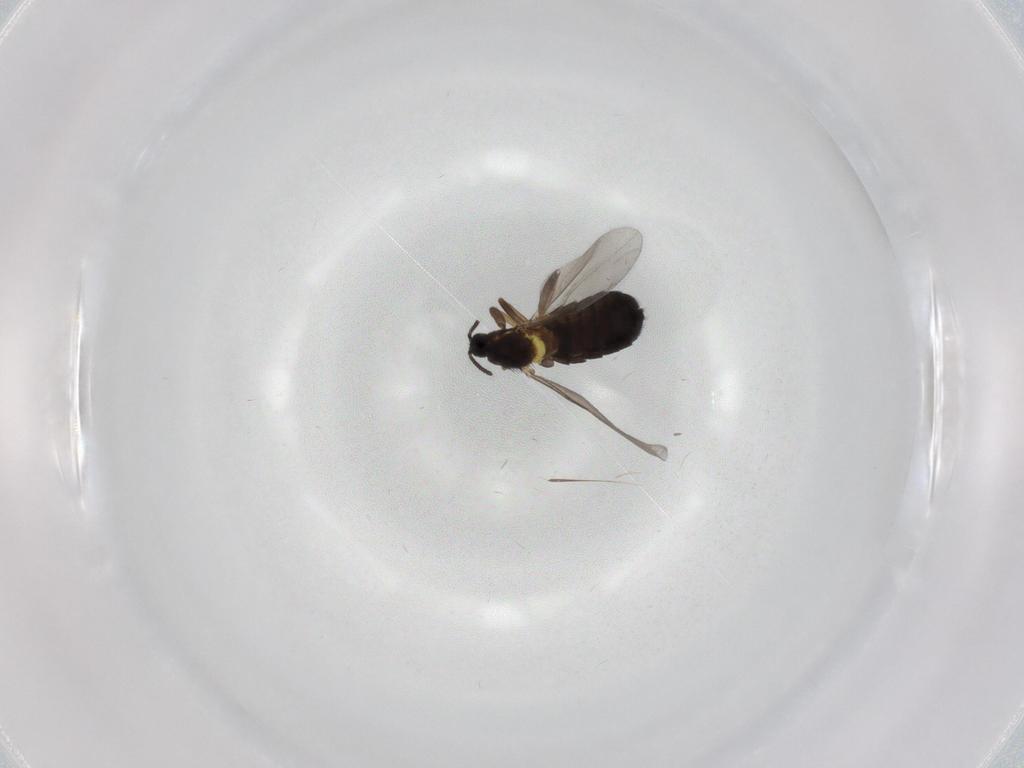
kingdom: Animalia
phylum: Arthropoda
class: Insecta
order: Diptera
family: Scatopsidae
